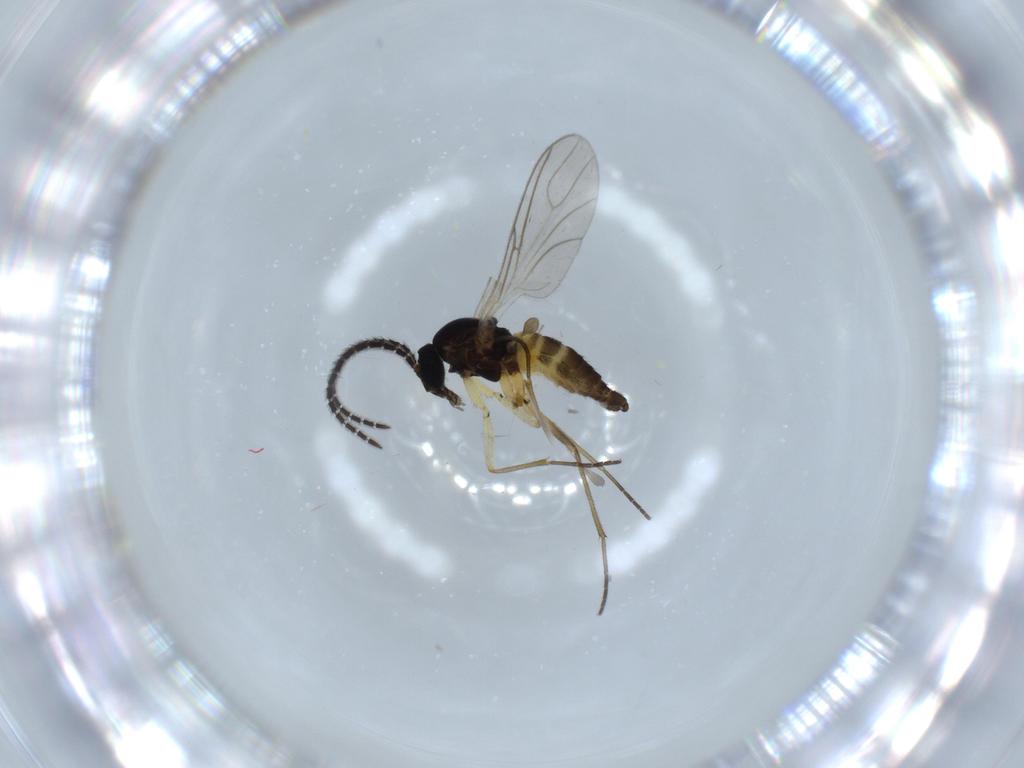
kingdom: Animalia
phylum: Arthropoda
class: Insecta
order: Diptera
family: Sciaridae
